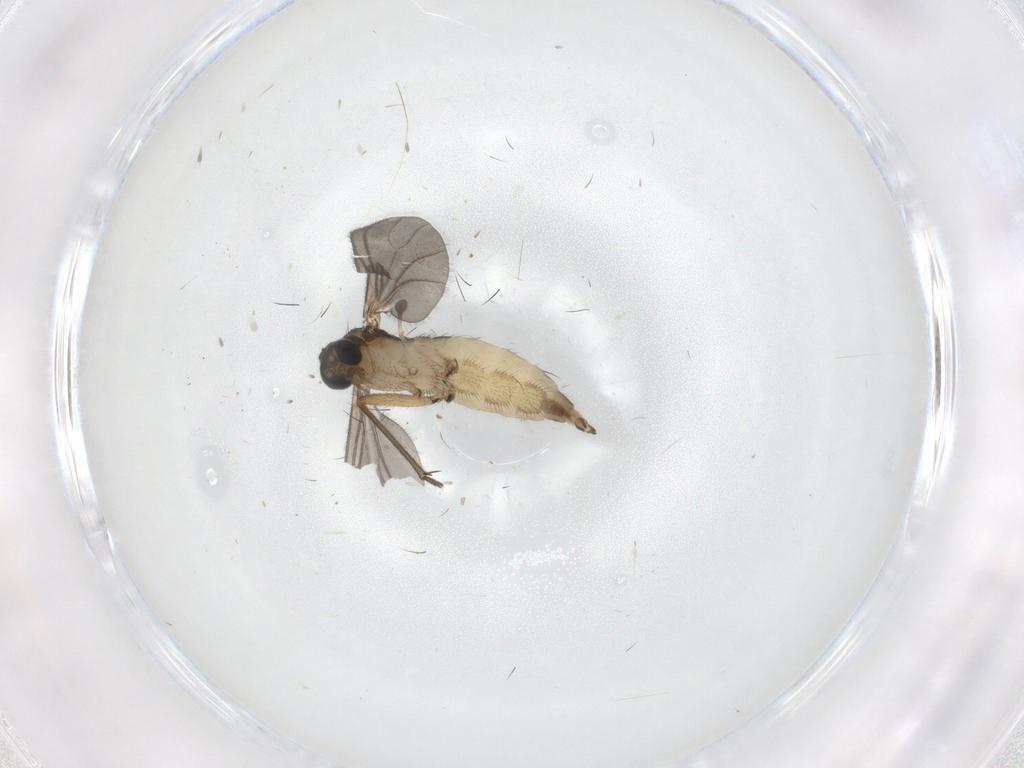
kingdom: Animalia
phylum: Arthropoda
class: Insecta
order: Diptera
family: Sciaridae
